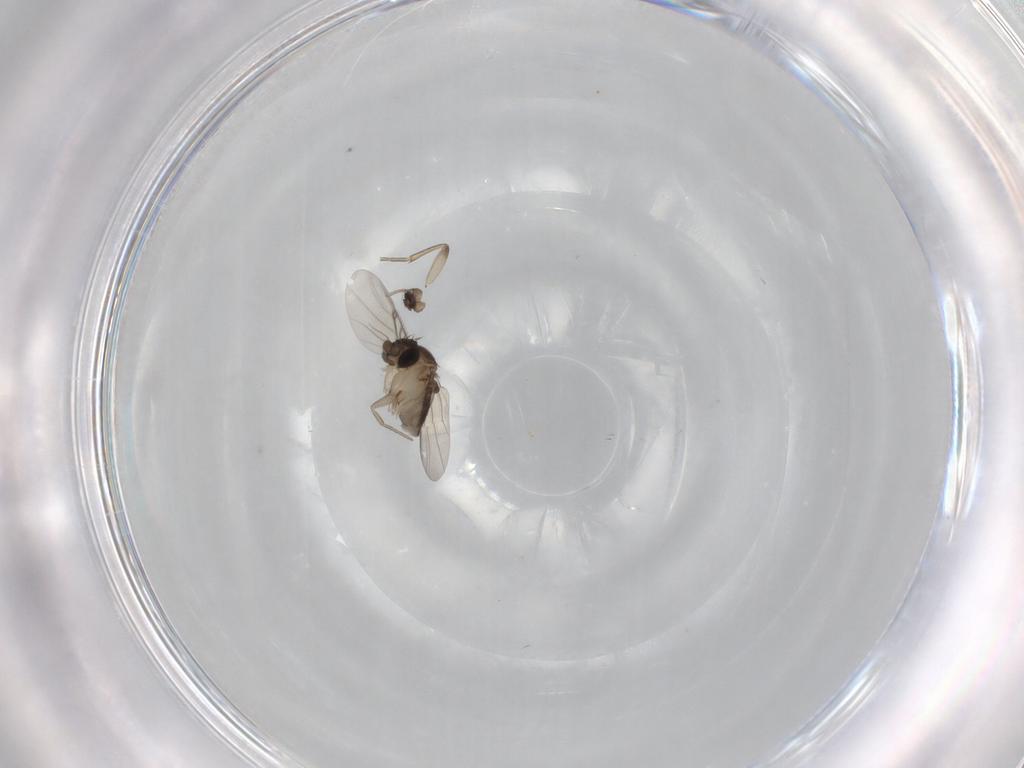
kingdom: Animalia
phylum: Arthropoda
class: Insecta
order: Diptera
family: Phoridae
